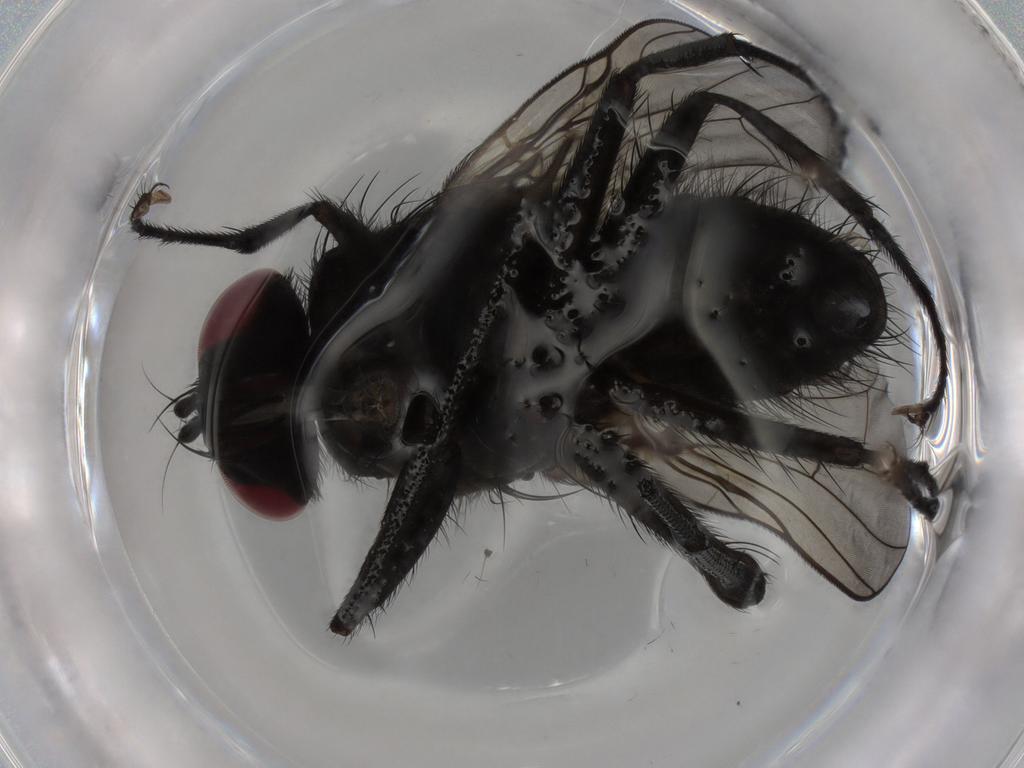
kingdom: Animalia
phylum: Arthropoda
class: Insecta
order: Diptera
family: Muscidae
